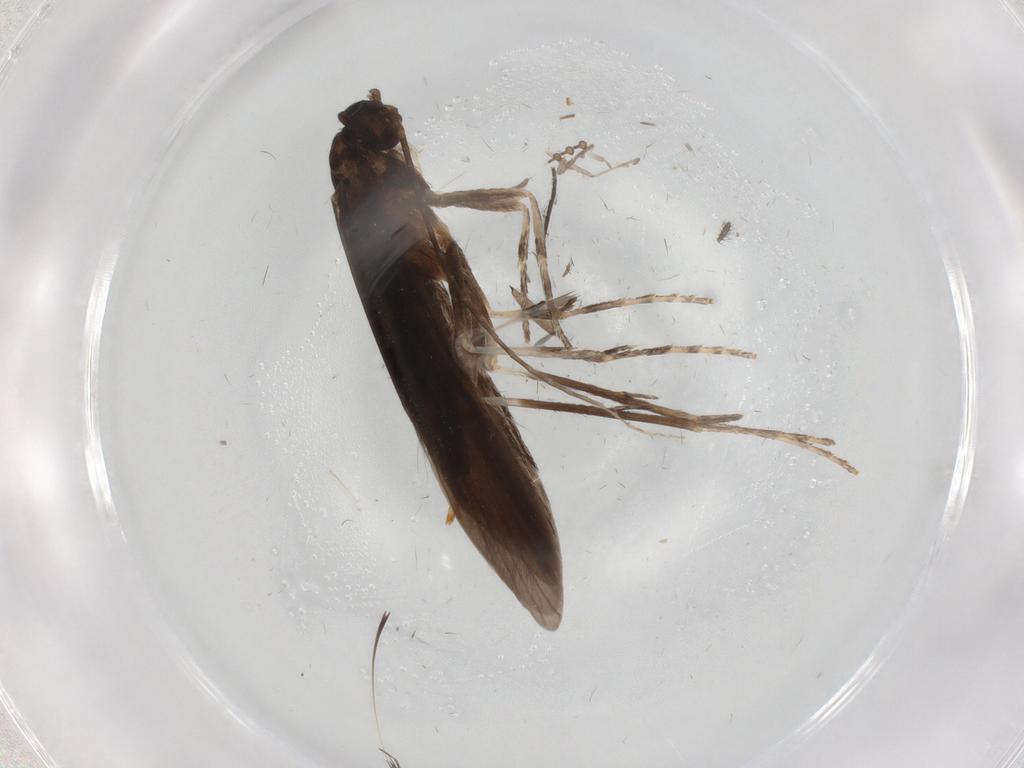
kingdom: Animalia
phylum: Arthropoda
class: Insecta
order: Trichoptera
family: Xiphocentronidae
